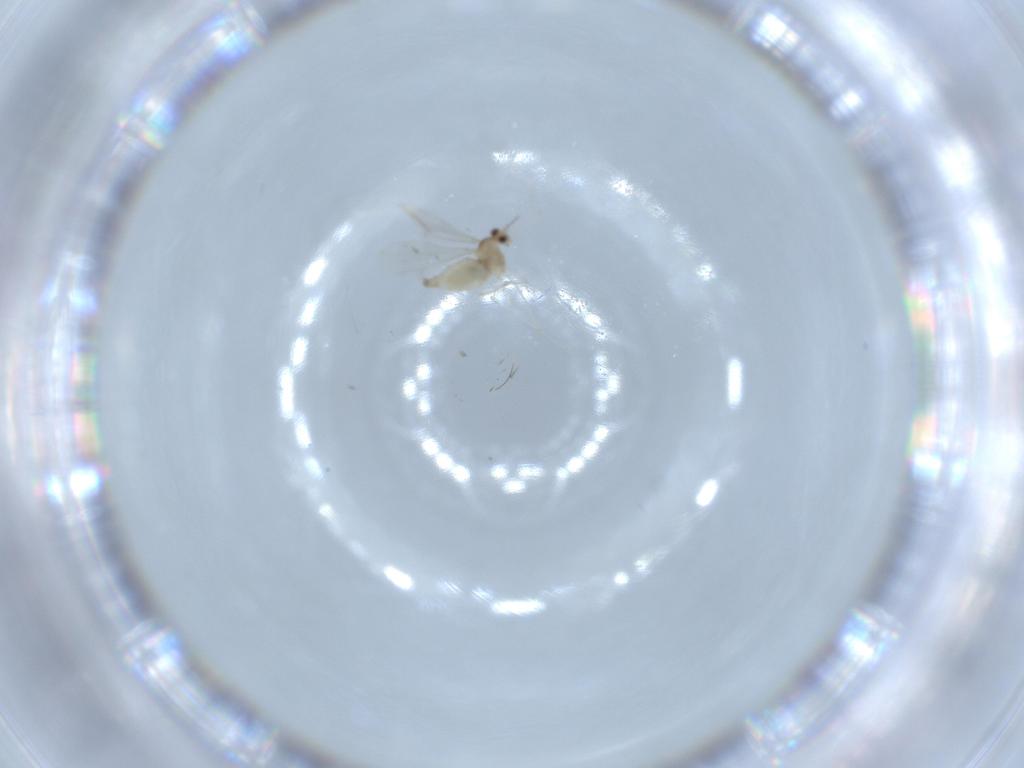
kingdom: Animalia
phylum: Arthropoda
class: Insecta
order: Diptera
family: Cecidomyiidae
